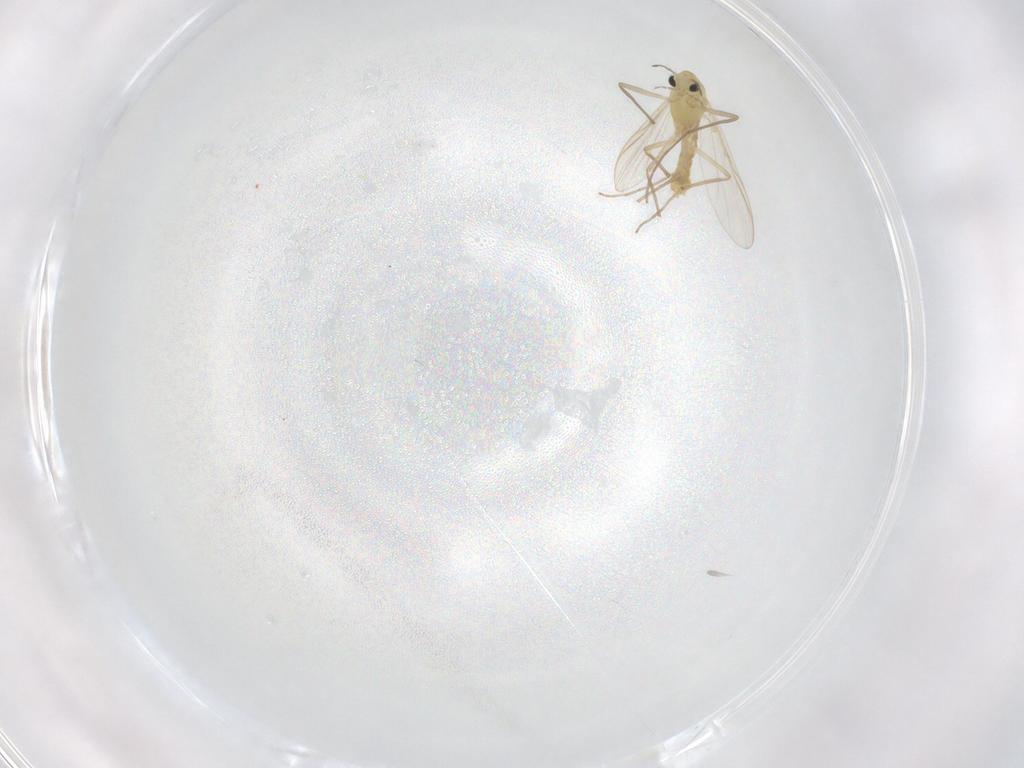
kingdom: Animalia
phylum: Arthropoda
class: Insecta
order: Diptera
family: Chironomidae
